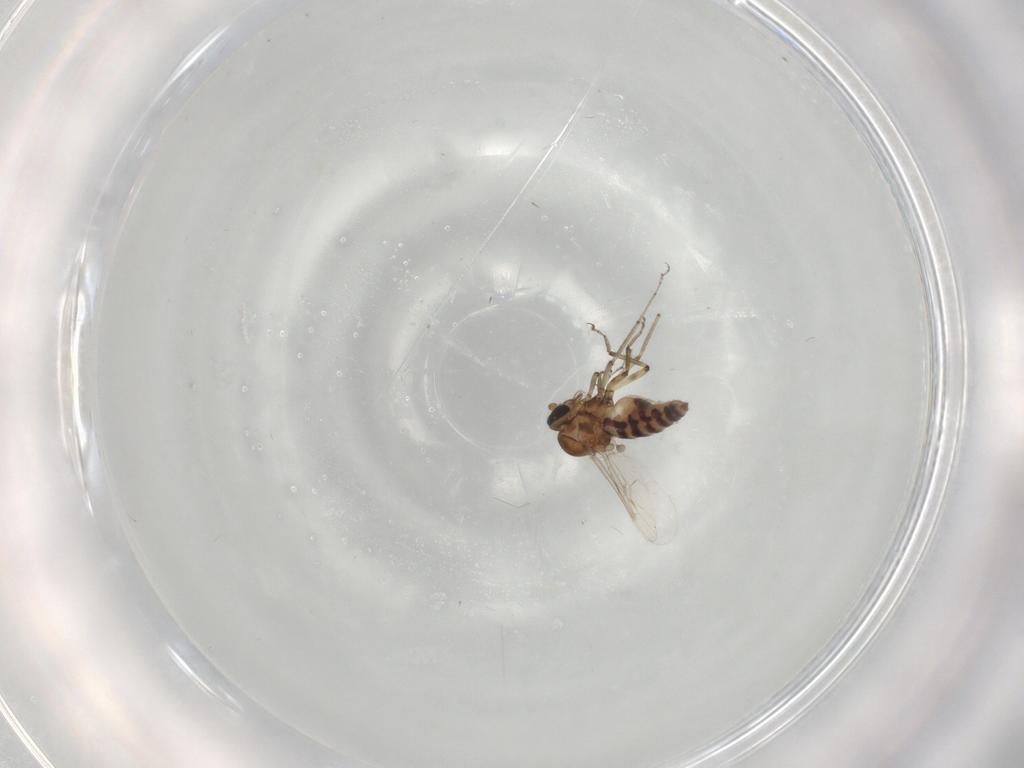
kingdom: Animalia
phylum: Arthropoda
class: Insecta
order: Diptera
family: Ceratopogonidae
